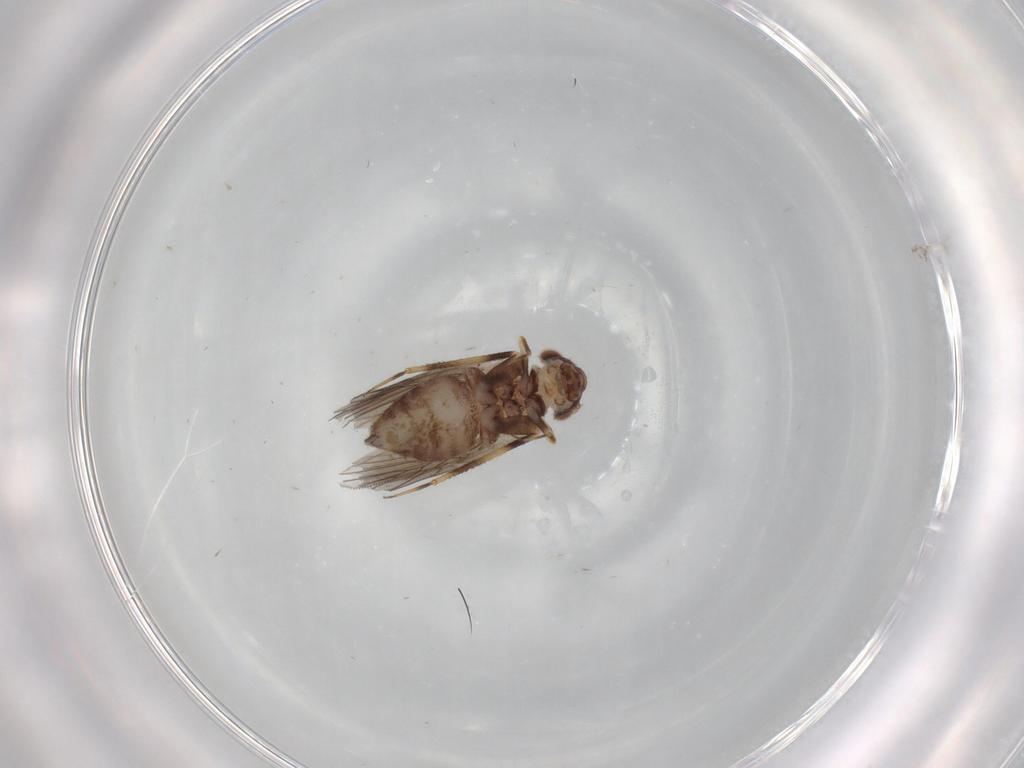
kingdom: Animalia
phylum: Arthropoda
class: Insecta
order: Psocodea
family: Lepidopsocidae
